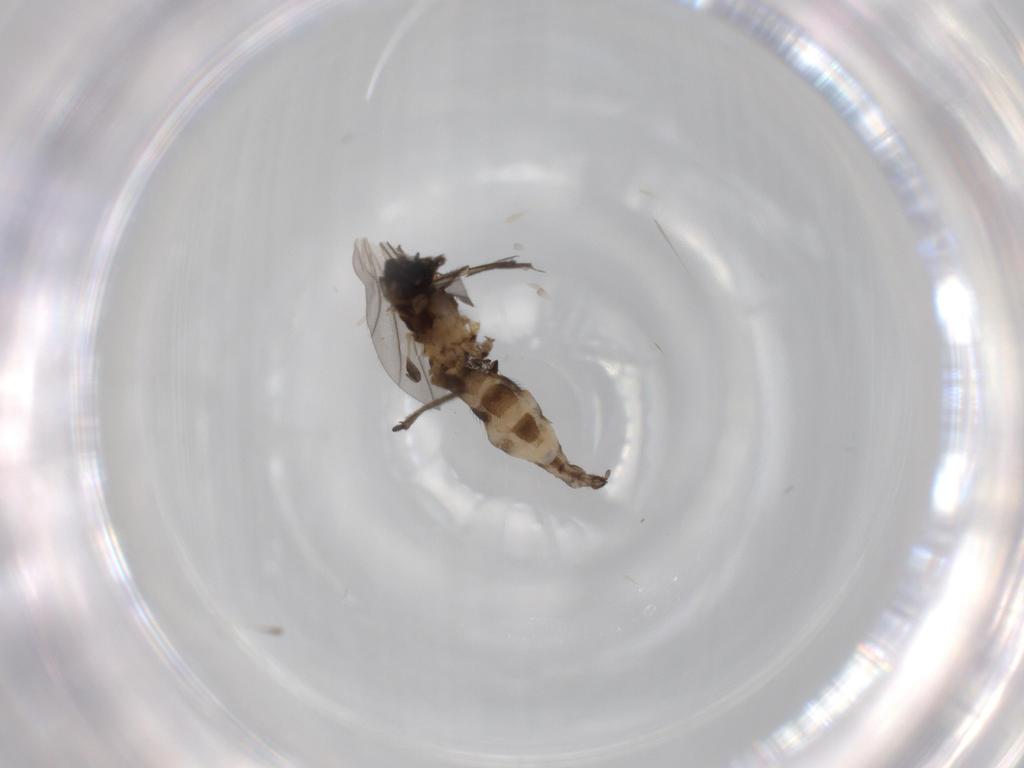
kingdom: Animalia
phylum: Arthropoda
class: Insecta
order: Diptera
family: Sciaridae
